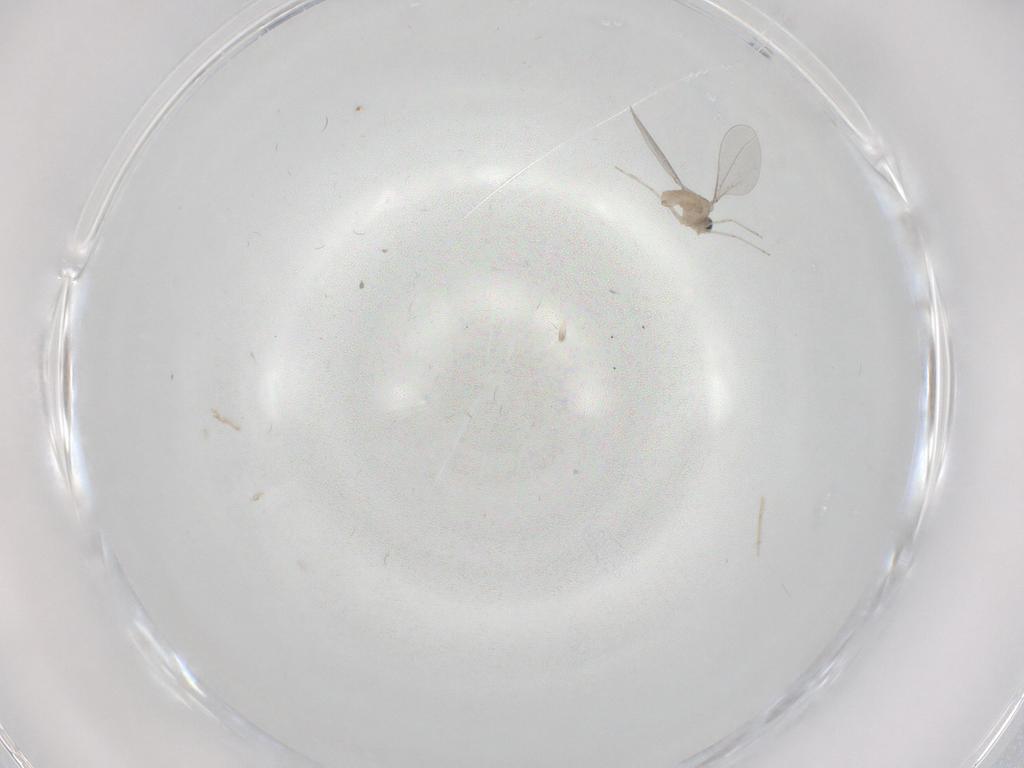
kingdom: Animalia
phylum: Arthropoda
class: Insecta
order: Diptera
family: Cecidomyiidae
